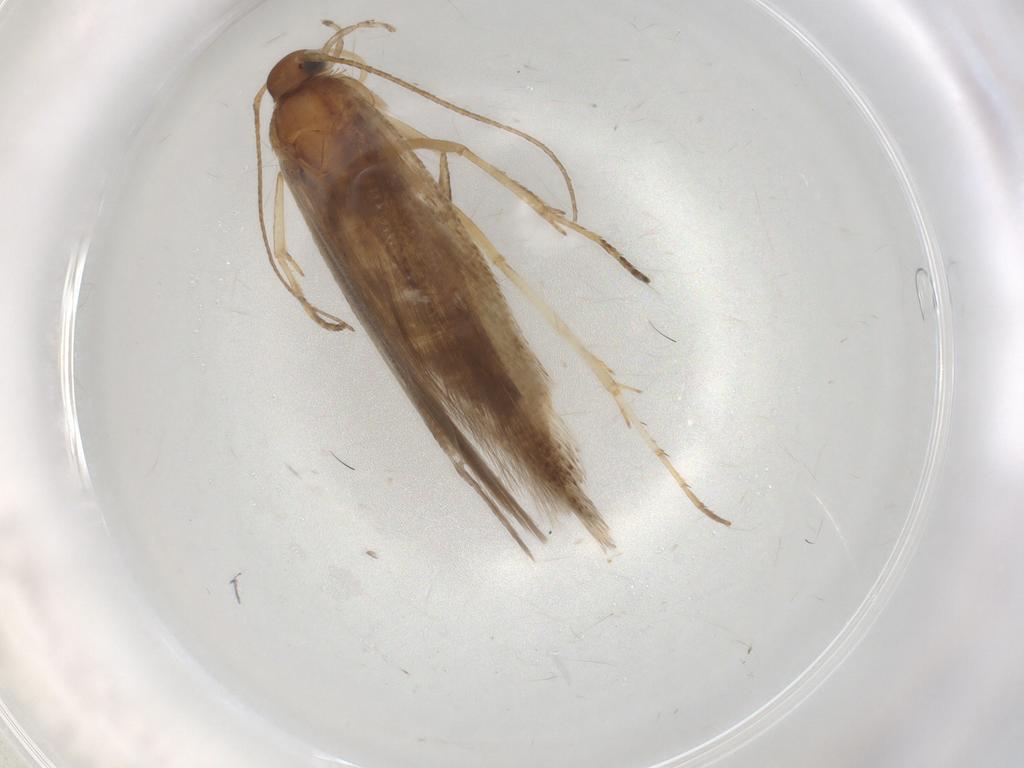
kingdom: Animalia
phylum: Arthropoda
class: Insecta
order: Lepidoptera
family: Gelechiidae
